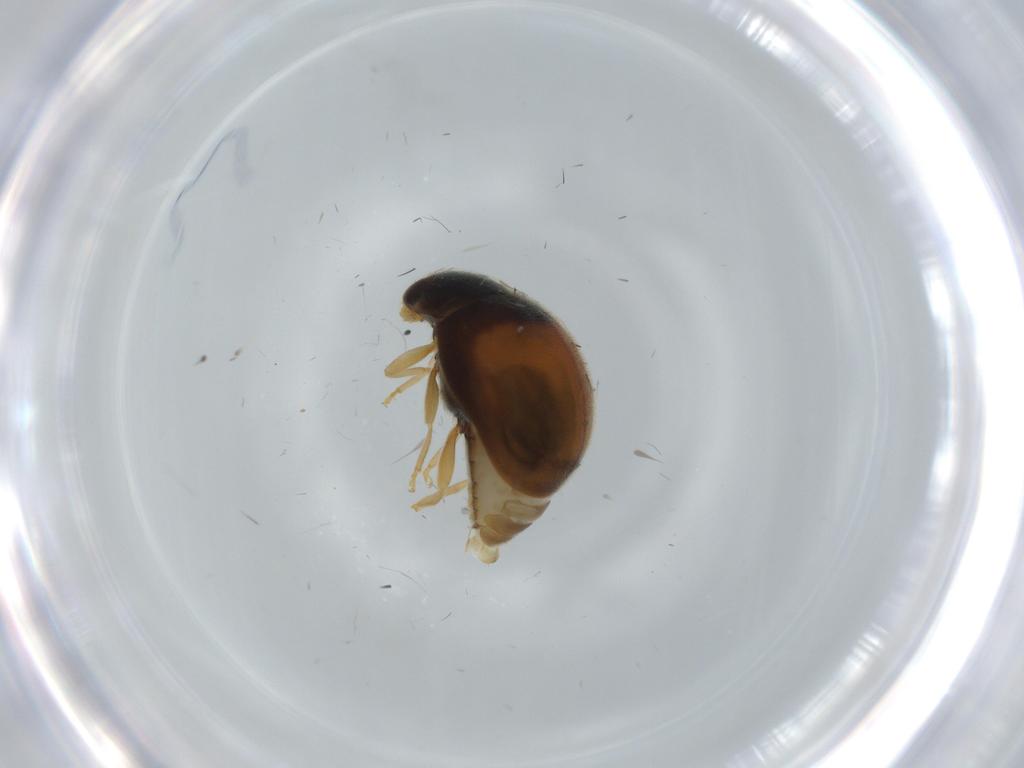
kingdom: Animalia
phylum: Arthropoda
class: Insecta
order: Coleoptera
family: Coccinellidae
